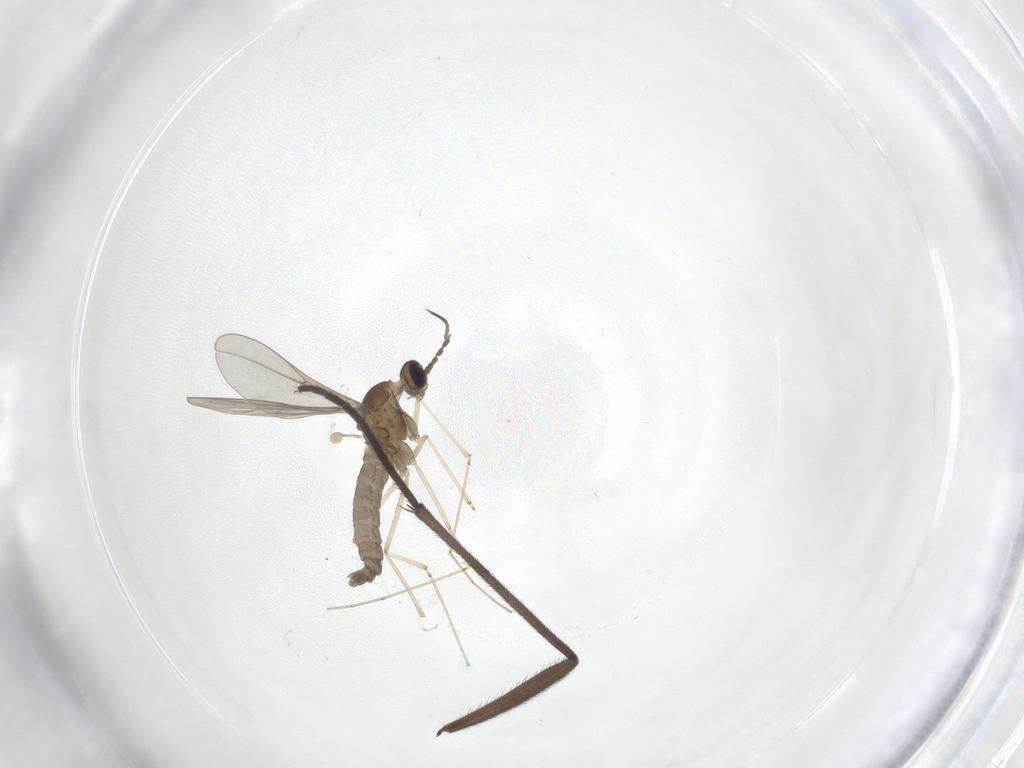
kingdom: Animalia
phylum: Arthropoda
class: Insecta
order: Diptera
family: Cecidomyiidae
